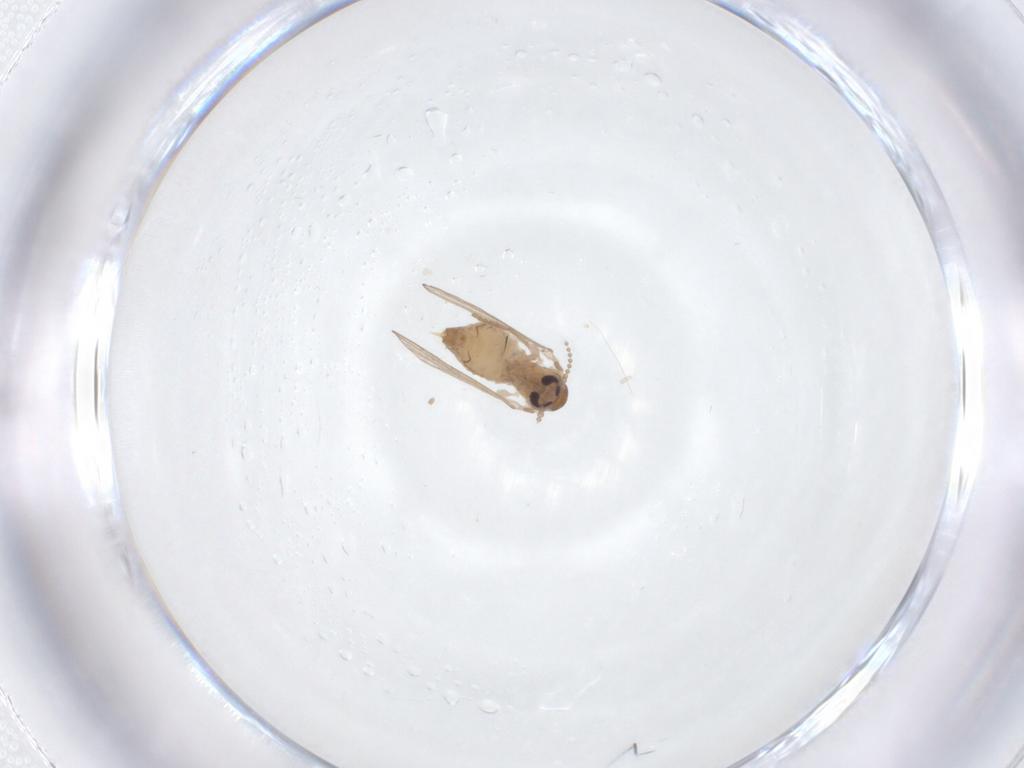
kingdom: Animalia
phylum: Arthropoda
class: Insecta
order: Diptera
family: Psychodidae
